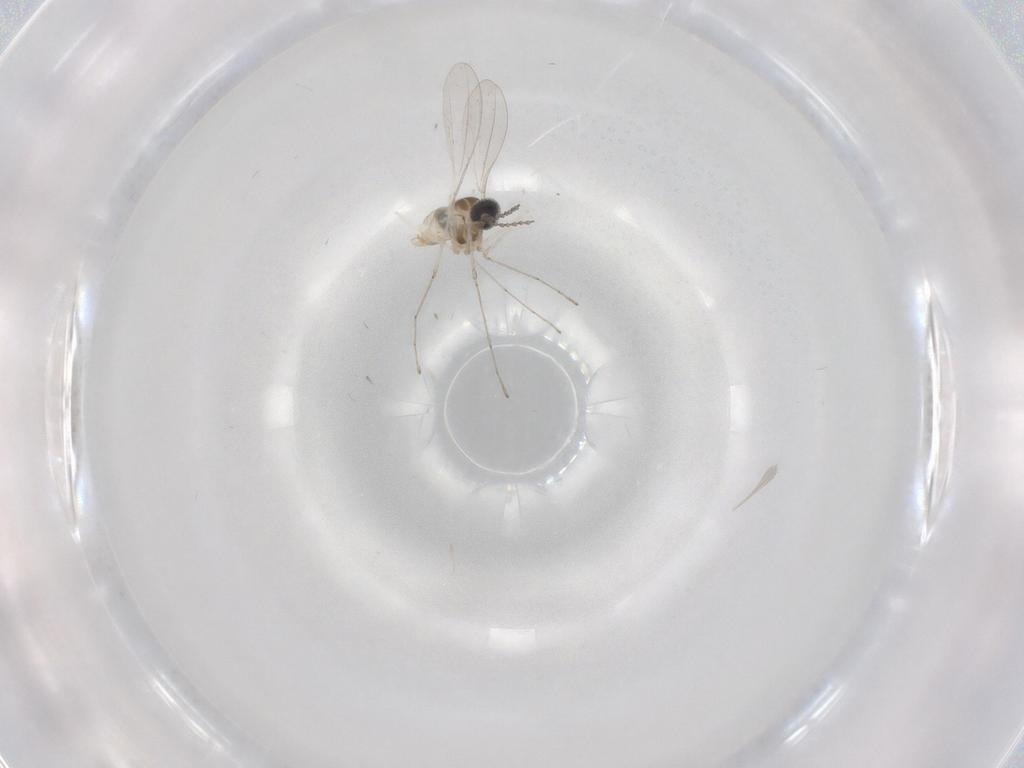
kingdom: Animalia
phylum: Arthropoda
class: Insecta
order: Diptera
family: Cecidomyiidae
